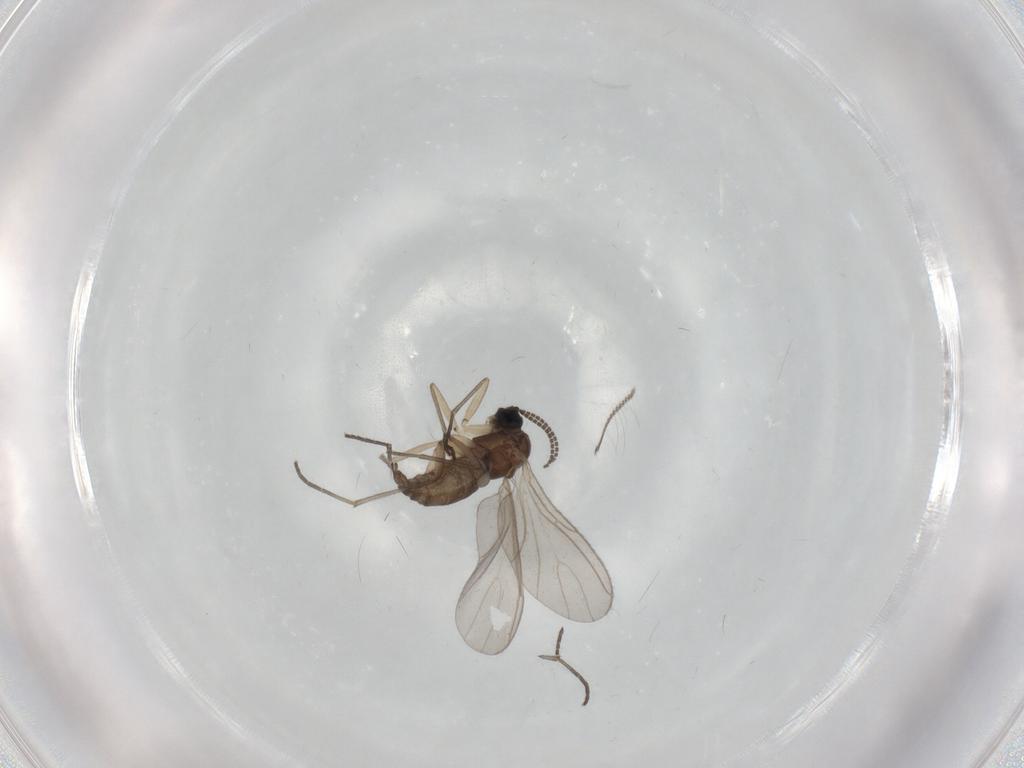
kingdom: Animalia
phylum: Arthropoda
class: Insecta
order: Diptera
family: Sciaridae
